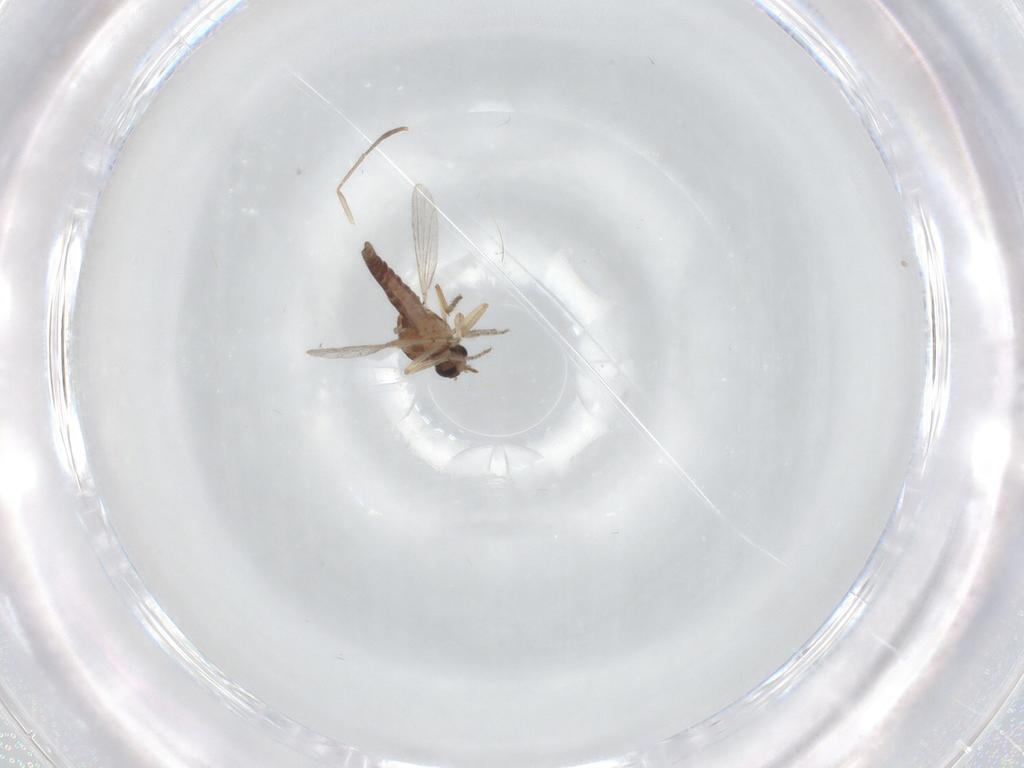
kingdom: Animalia
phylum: Arthropoda
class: Insecta
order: Diptera
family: Ceratopogonidae
